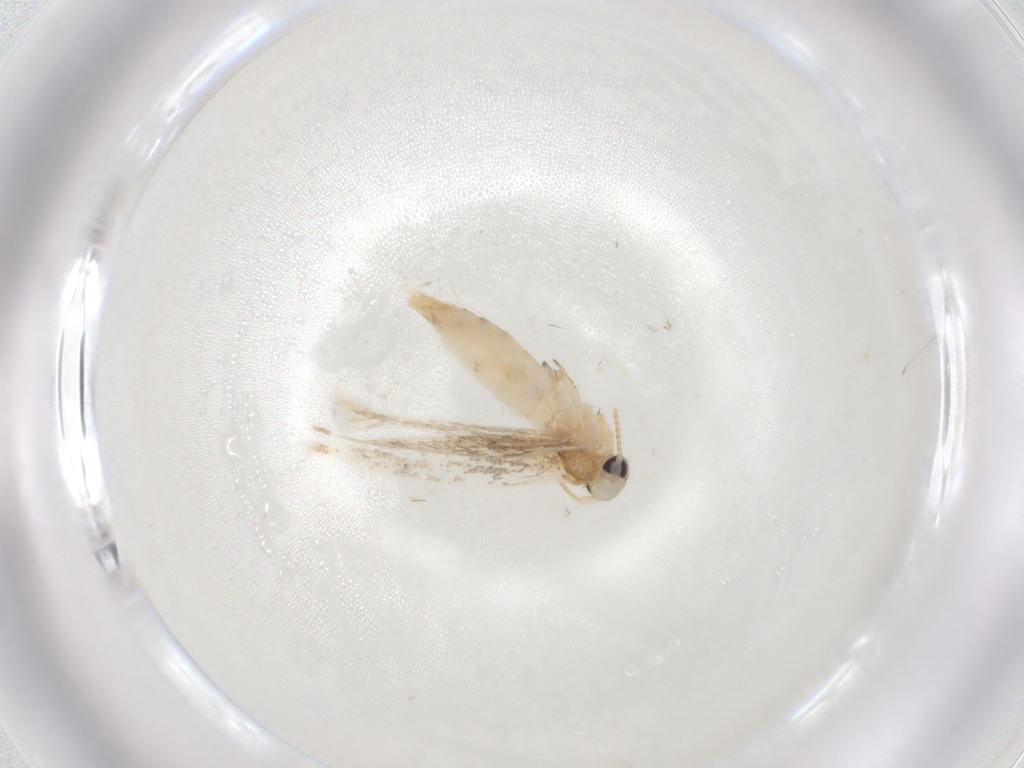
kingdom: Animalia
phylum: Arthropoda
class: Insecta
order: Lepidoptera
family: Gracillariidae
